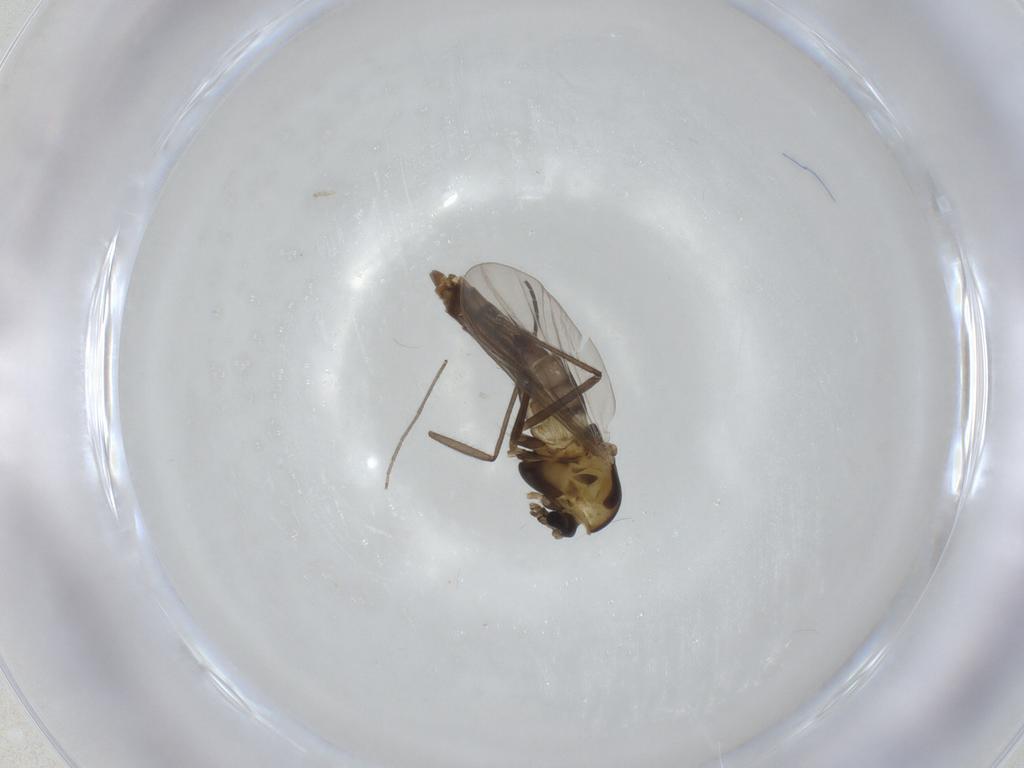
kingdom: Animalia
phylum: Arthropoda
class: Insecta
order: Diptera
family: Chironomidae
